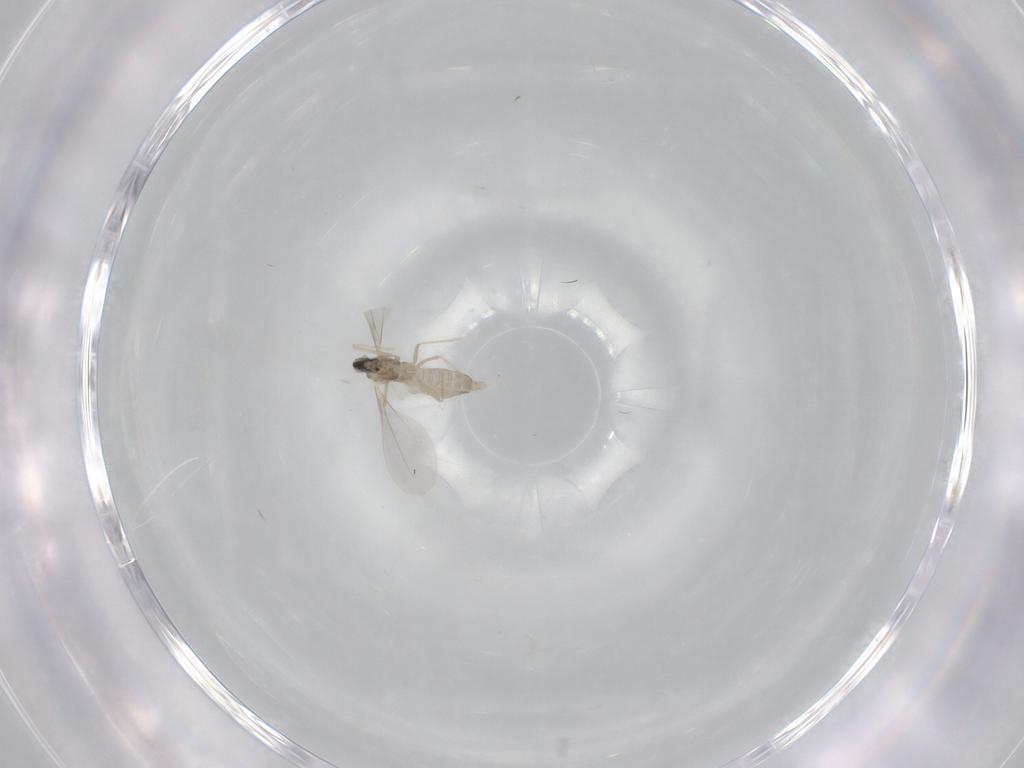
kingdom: Animalia
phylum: Arthropoda
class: Insecta
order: Diptera
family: Cecidomyiidae
